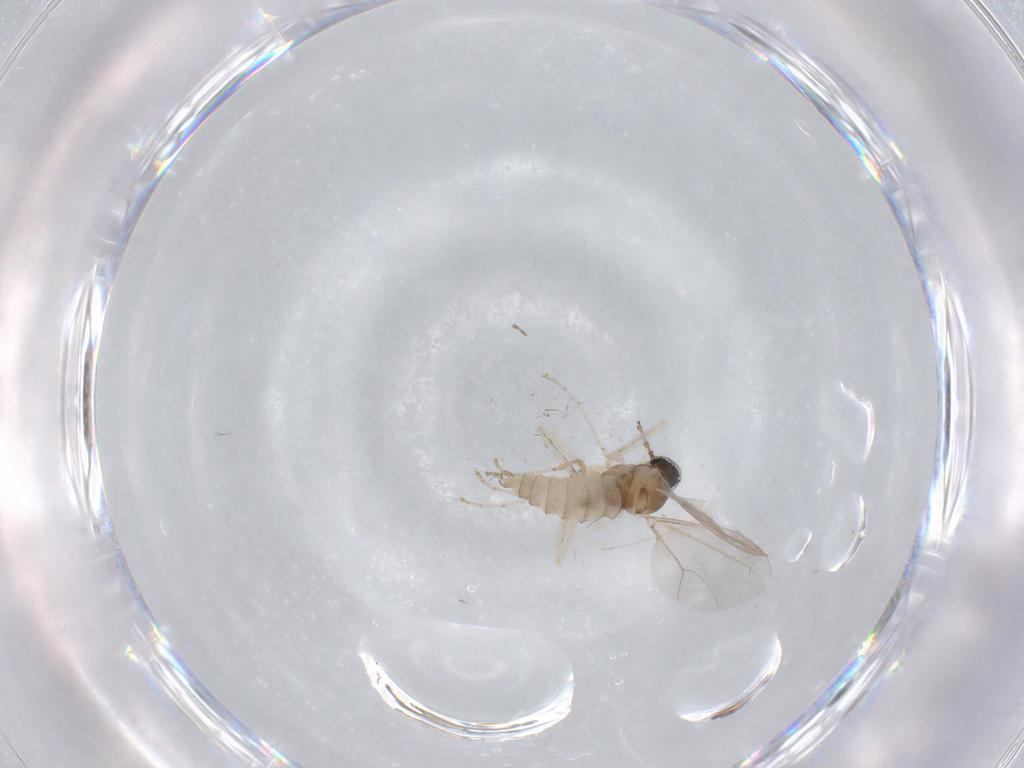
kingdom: Animalia
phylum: Arthropoda
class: Insecta
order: Diptera
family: Cecidomyiidae
